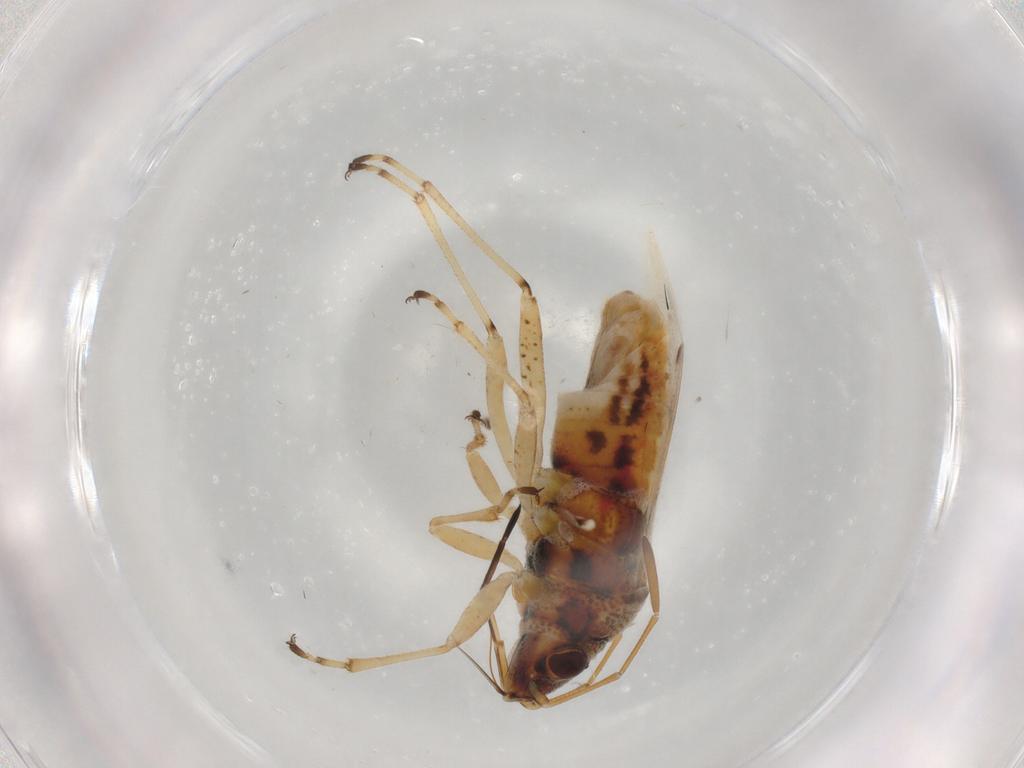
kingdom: Animalia
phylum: Arthropoda
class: Insecta
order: Hemiptera
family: Lygaeidae
